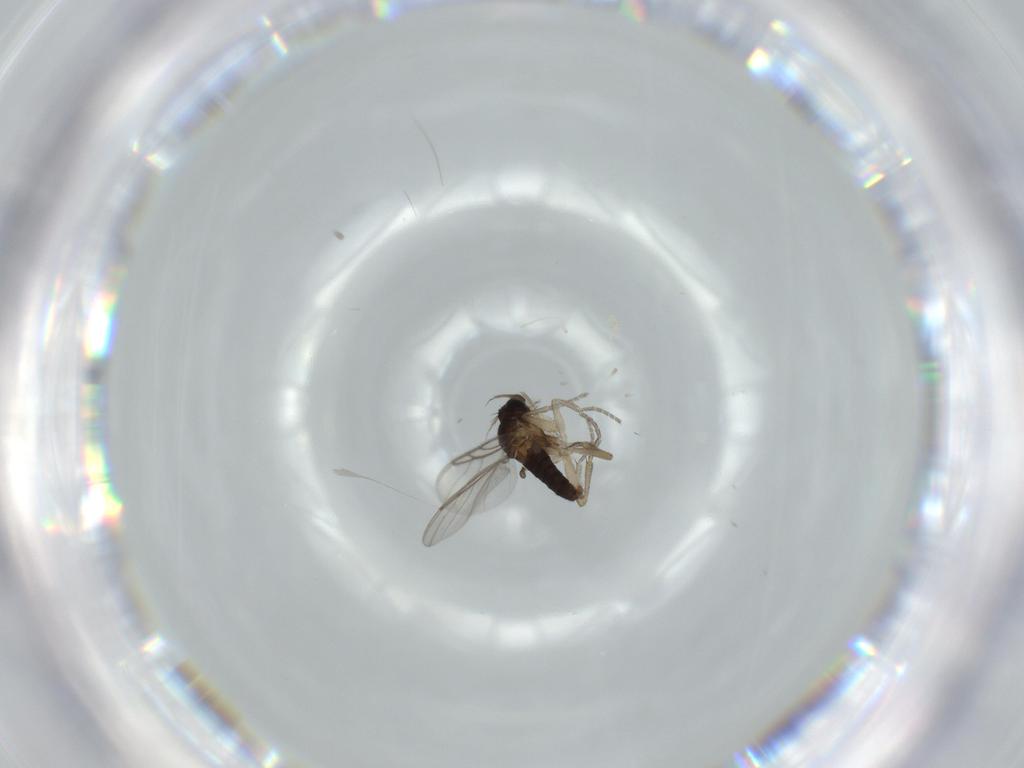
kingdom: Animalia
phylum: Arthropoda
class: Insecta
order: Diptera
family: Phoridae
